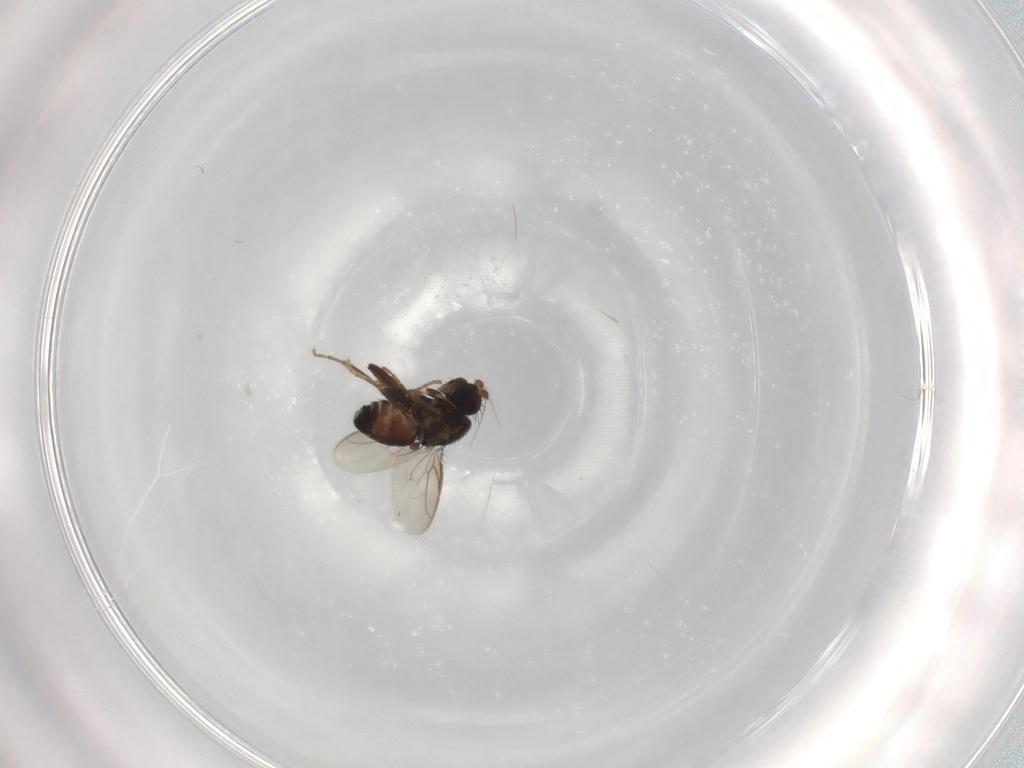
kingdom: Animalia
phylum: Arthropoda
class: Insecta
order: Diptera
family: Sphaeroceridae
